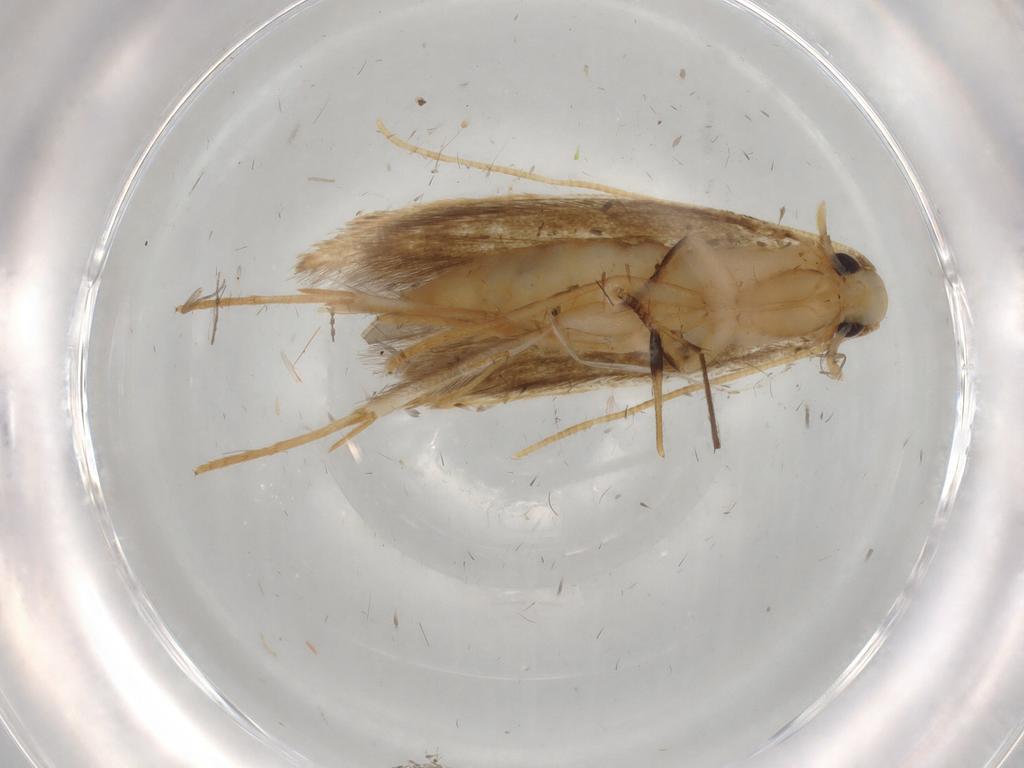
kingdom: Animalia
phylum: Arthropoda
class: Insecta
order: Lepidoptera
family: Cosmopterigidae
